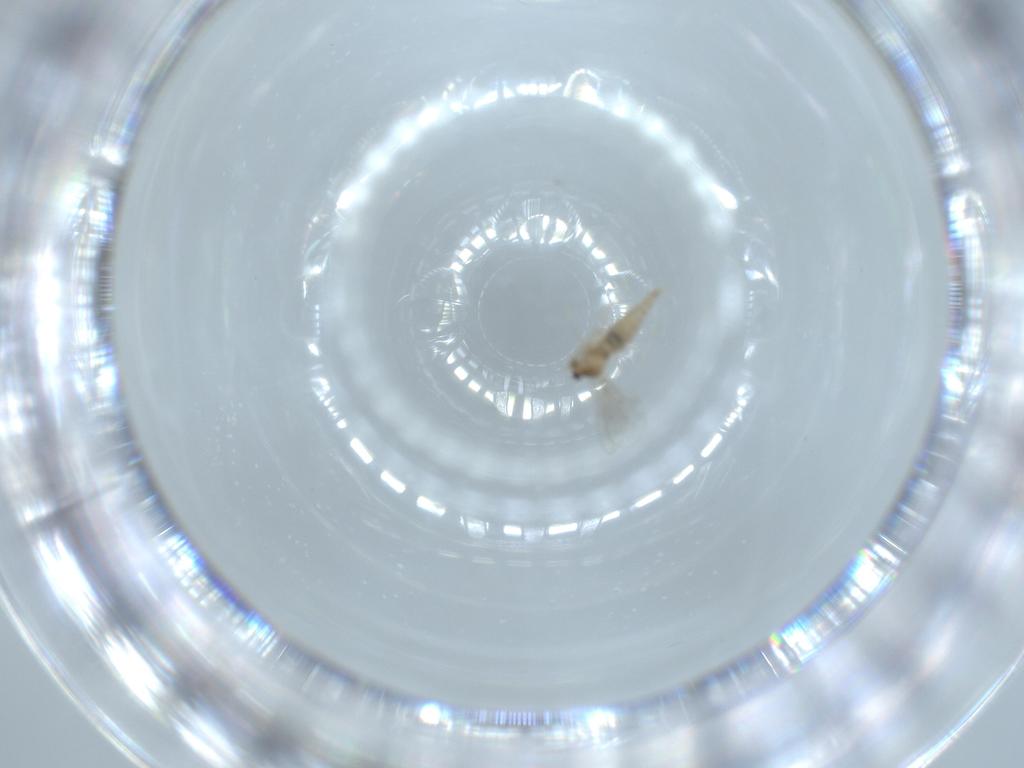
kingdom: Animalia
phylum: Arthropoda
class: Insecta
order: Diptera
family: Cecidomyiidae
